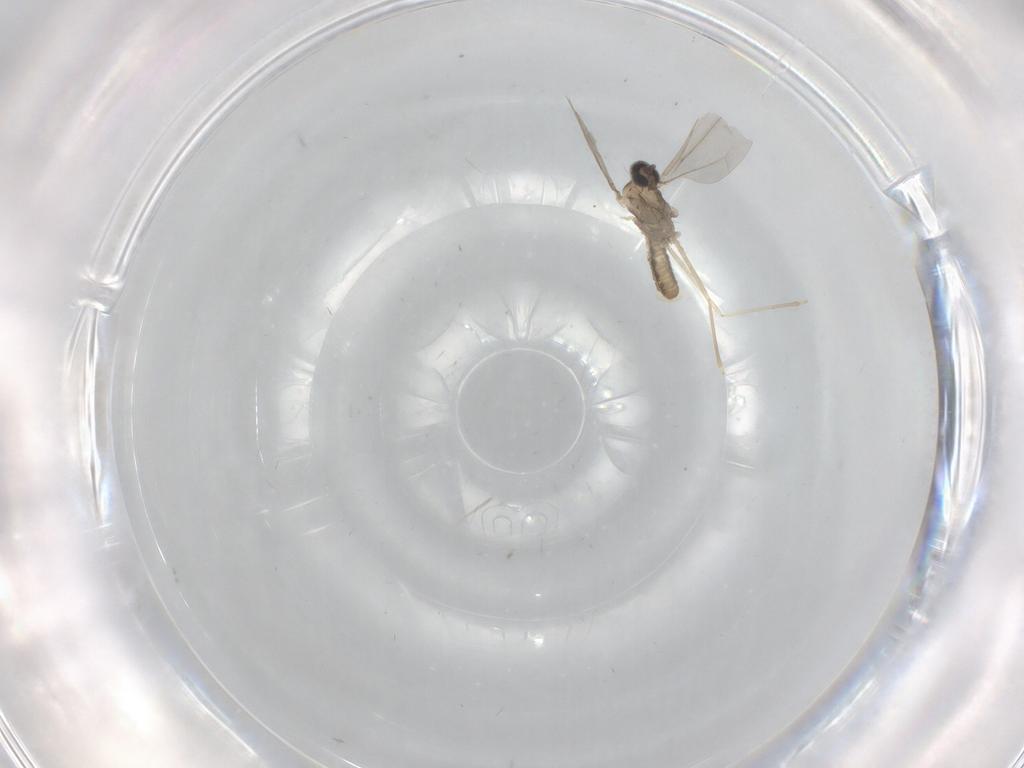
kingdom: Animalia
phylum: Arthropoda
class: Insecta
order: Diptera
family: Cecidomyiidae
